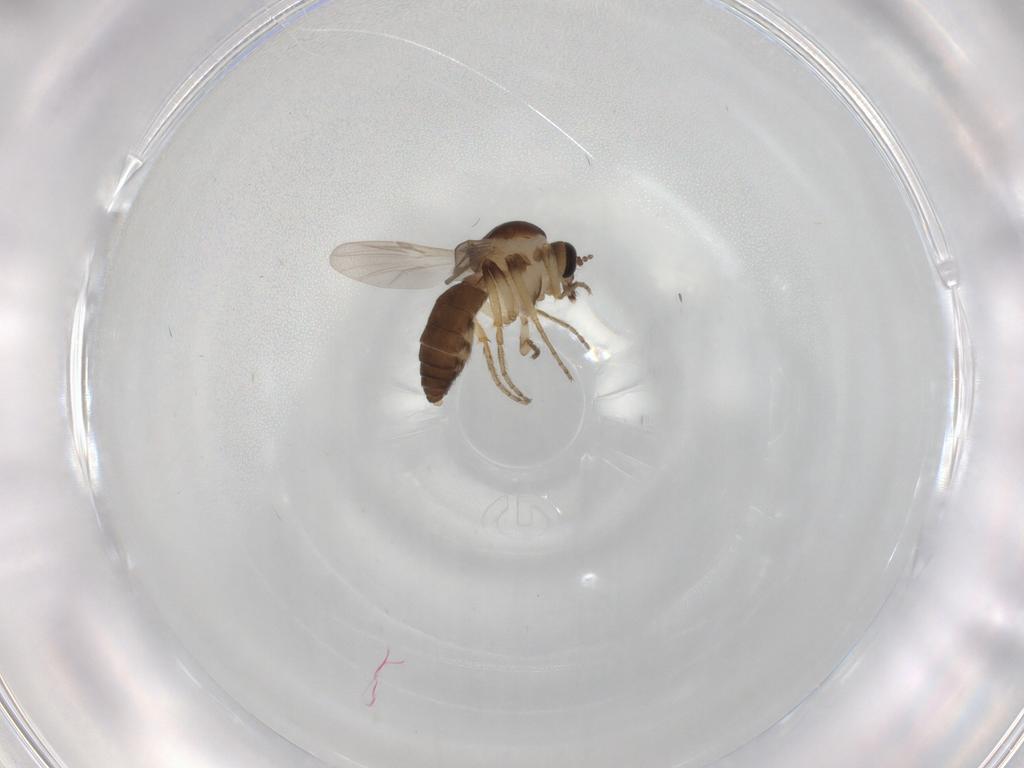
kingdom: Animalia
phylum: Arthropoda
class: Insecta
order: Diptera
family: Ceratopogonidae
